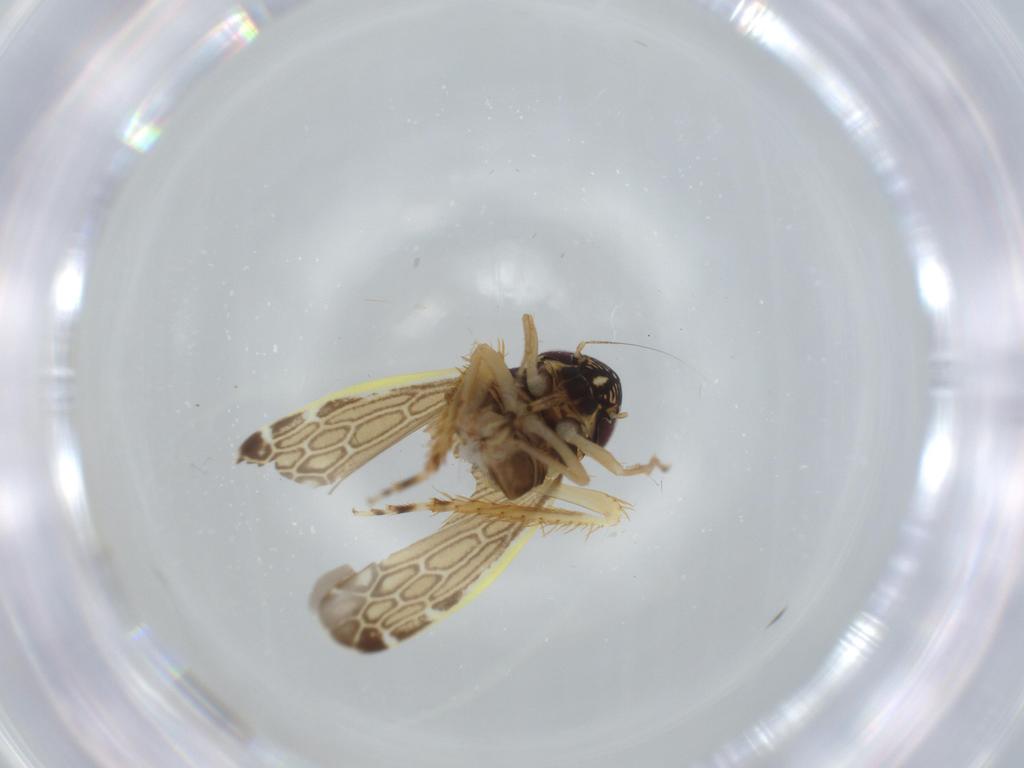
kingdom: Animalia
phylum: Arthropoda
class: Insecta
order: Hemiptera
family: Cicadellidae
